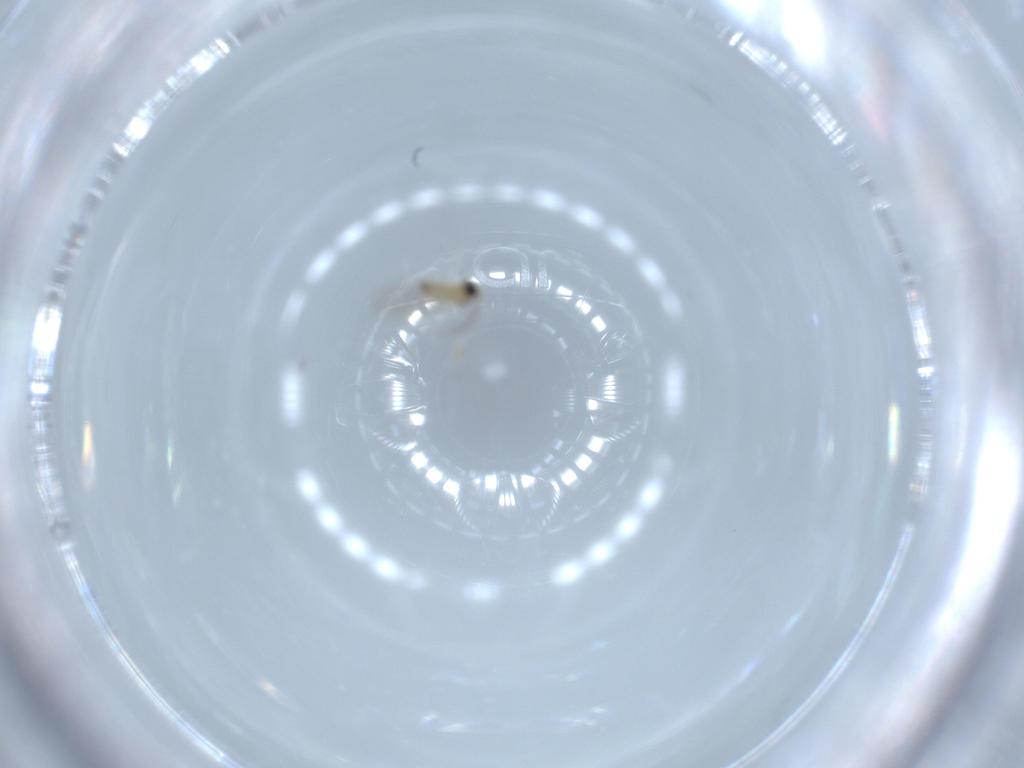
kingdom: Animalia
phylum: Arthropoda
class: Insecta
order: Diptera
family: Cecidomyiidae
